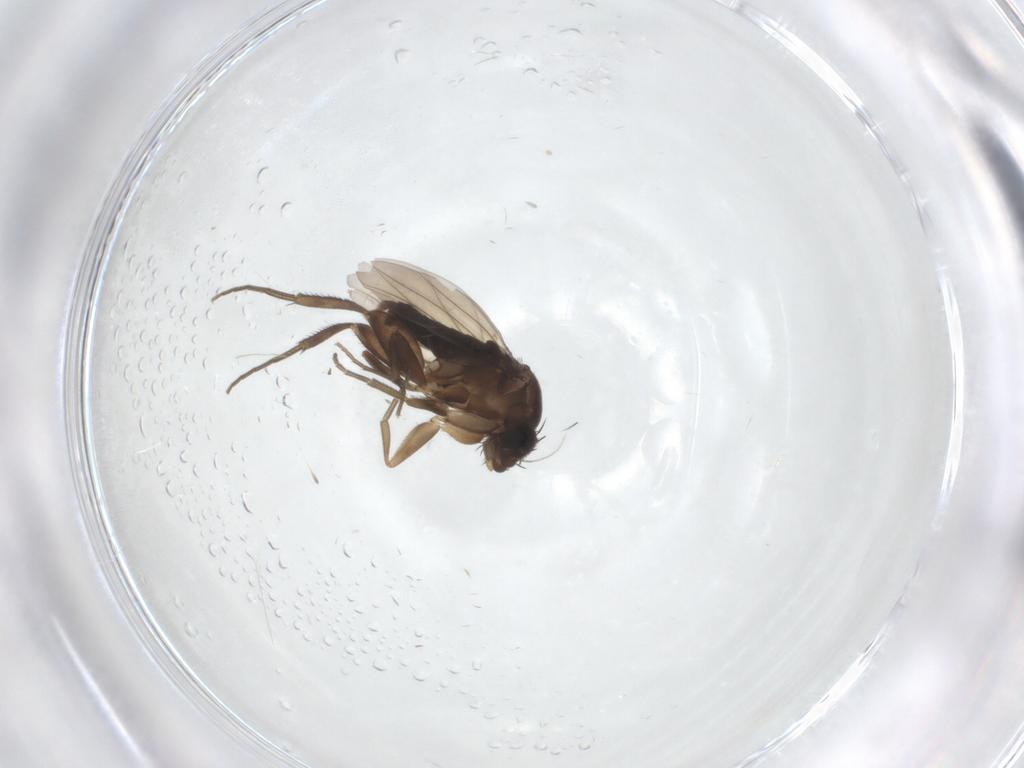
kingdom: Animalia
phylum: Arthropoda
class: Insecta
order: Diptera
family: Phoridae
